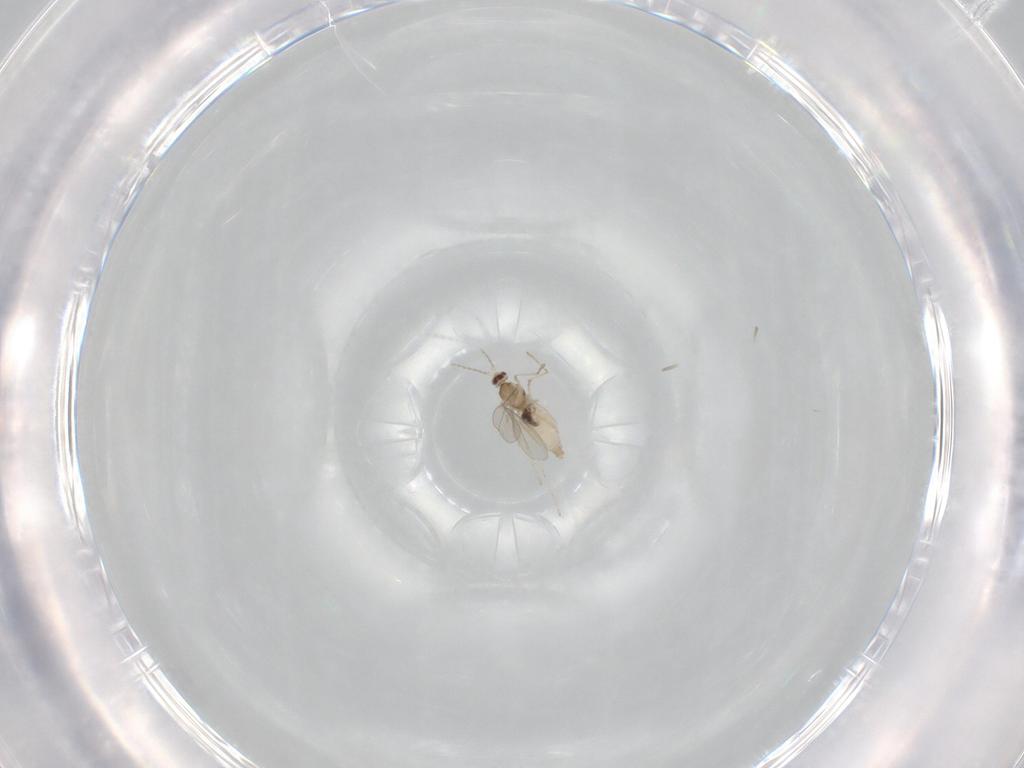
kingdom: Animalia
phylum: Arthropoda
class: Insecta
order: Diptera
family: Cecidomyiidae
